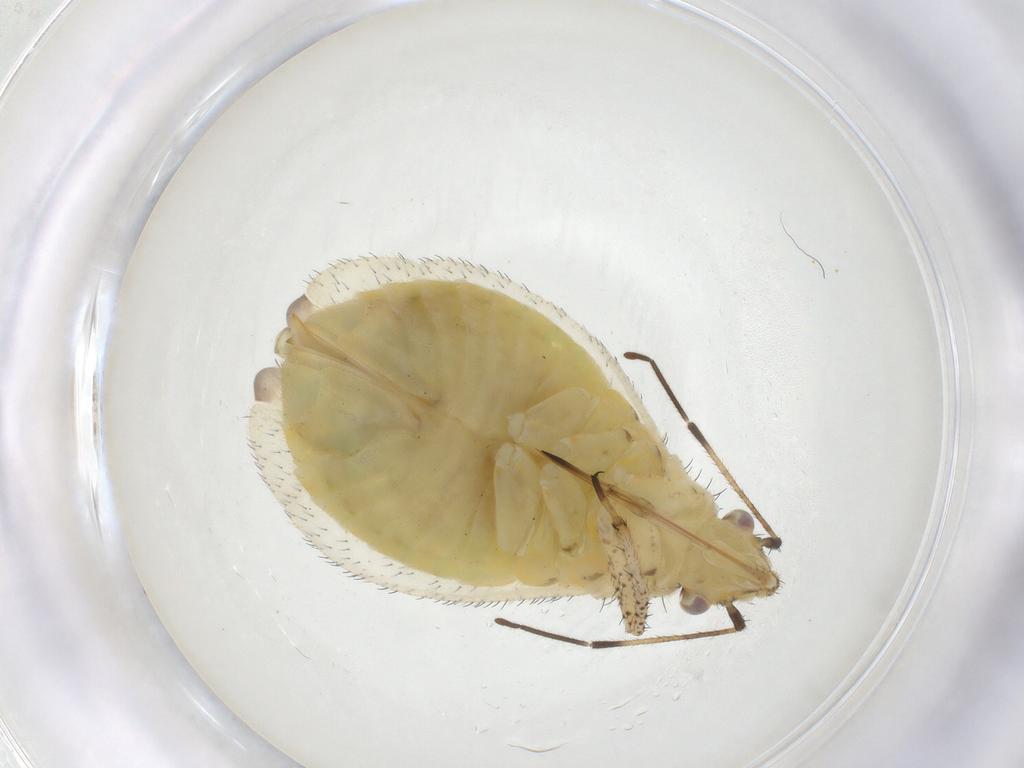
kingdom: Animalia
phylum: Arthropoda
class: Insecta
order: Hemiptera
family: Miridae
